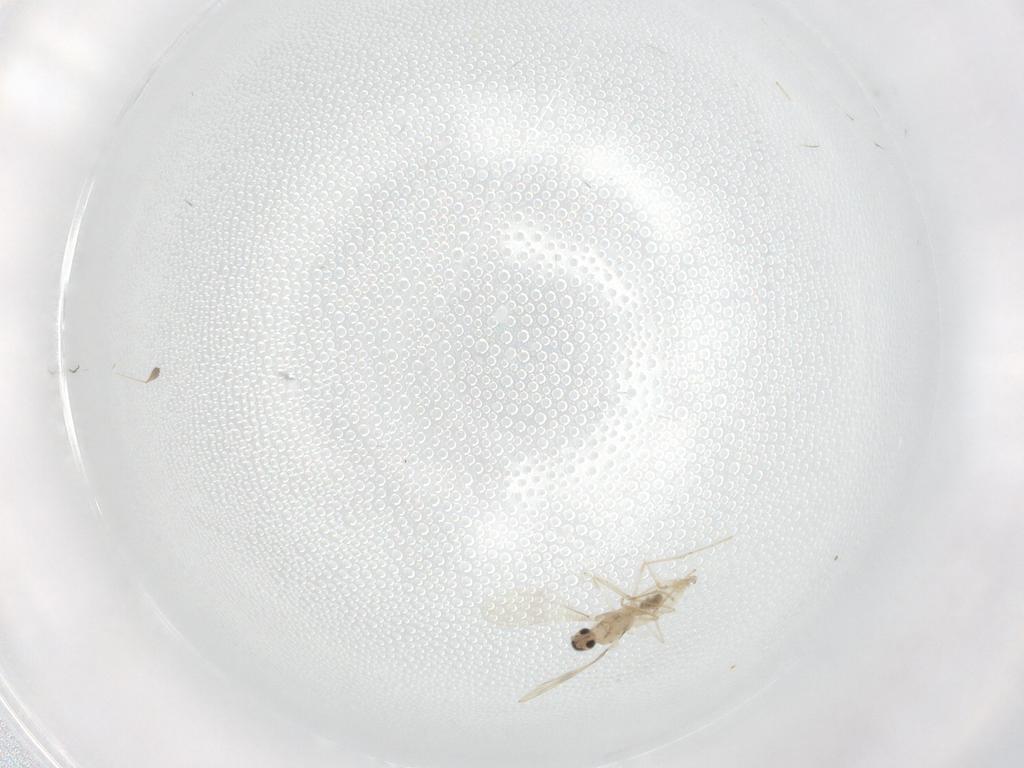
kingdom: Animalia
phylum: Arthropoda
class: Insecta
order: Diptera
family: Cecidomyiidae
